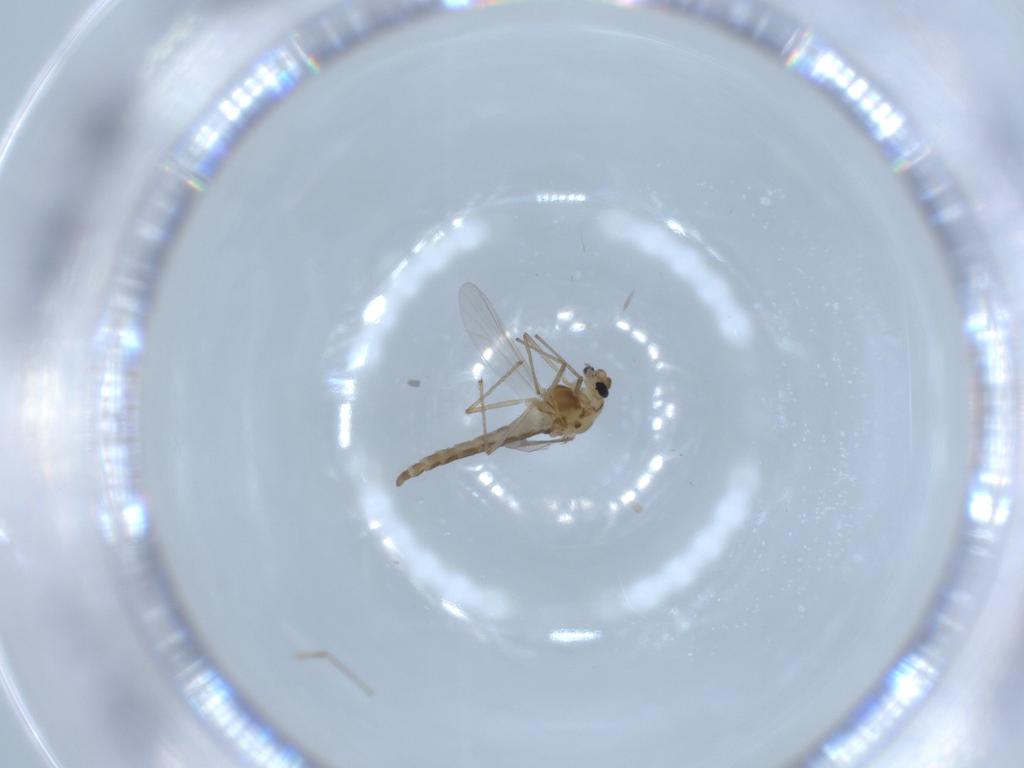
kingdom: Animalia
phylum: Arthropoda
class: Insecta
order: Diptera
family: Chironomidae
